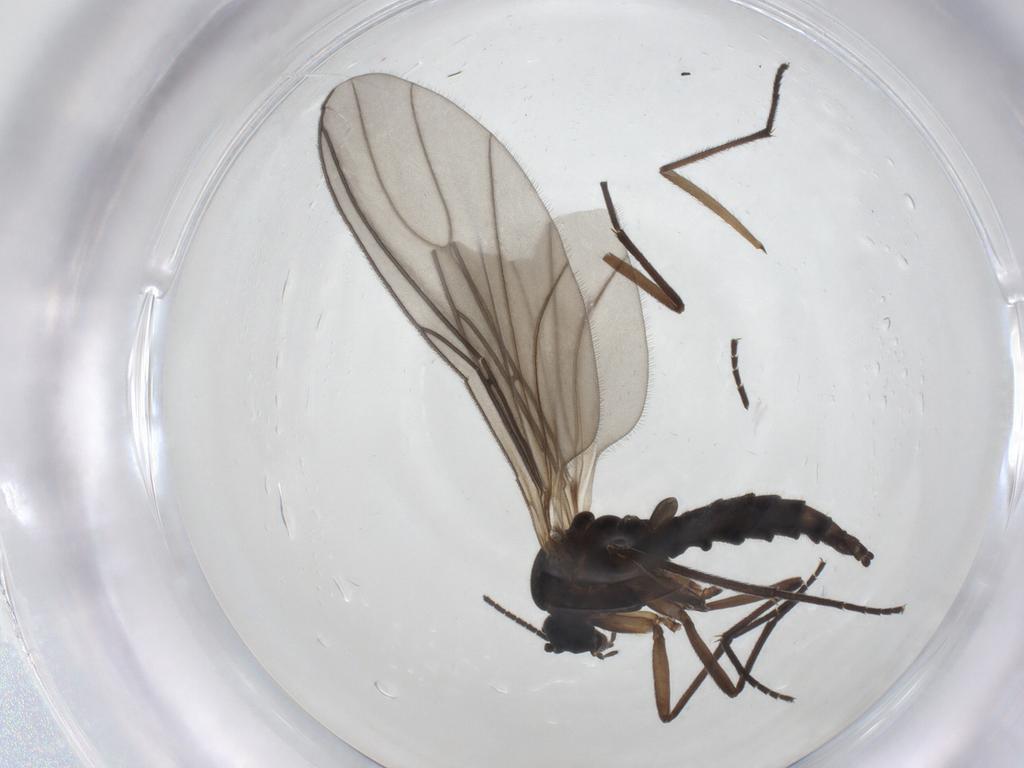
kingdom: Animalia
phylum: Arthropoda
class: Insecta
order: Diptera
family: Sciaridae
